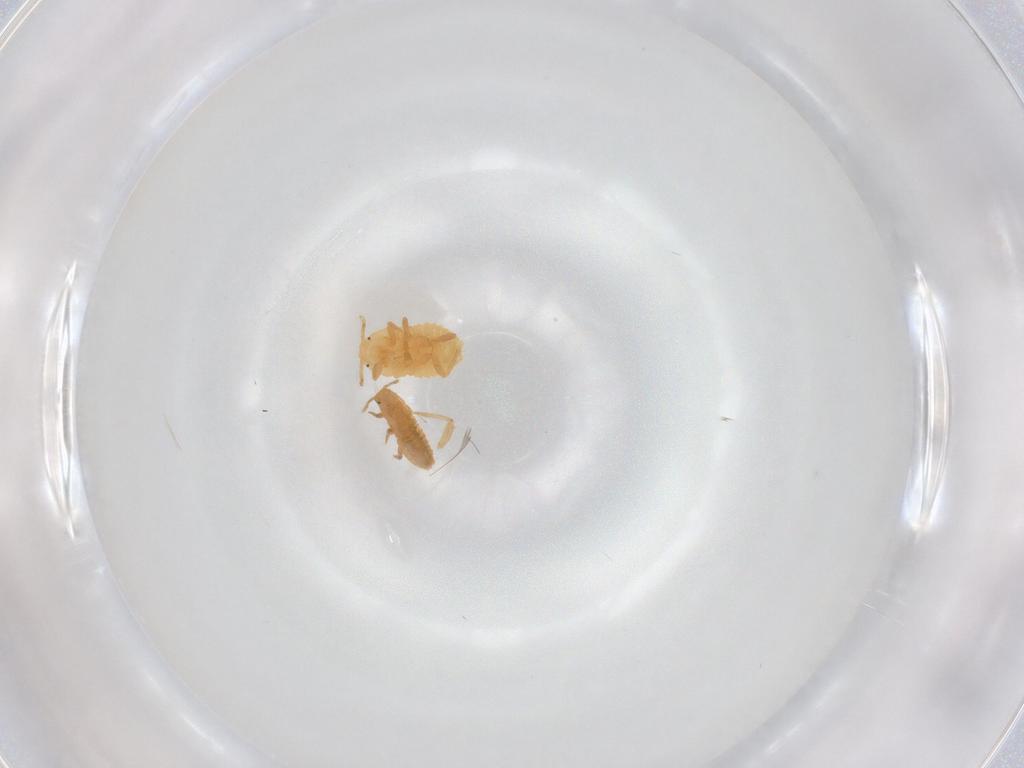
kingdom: Animalia
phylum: Arthropoda
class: Insecta
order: Diptera
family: Sciaridae
